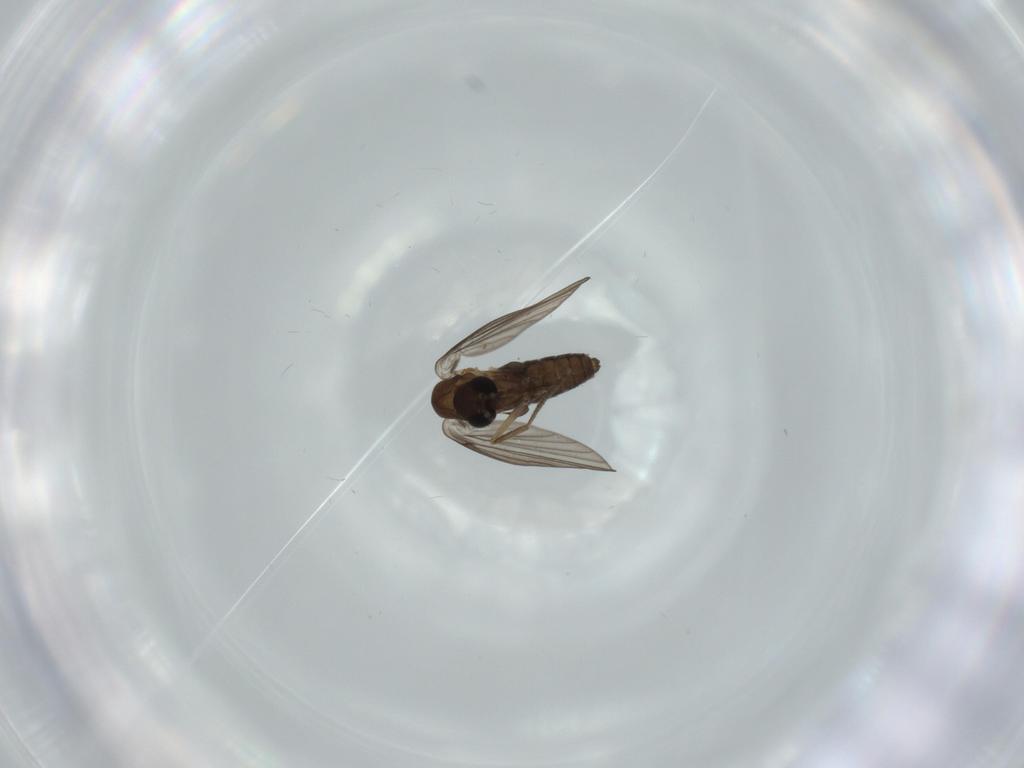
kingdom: Animalia
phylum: Arthropoda
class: Insecta
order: Diptera
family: Psychodidae
